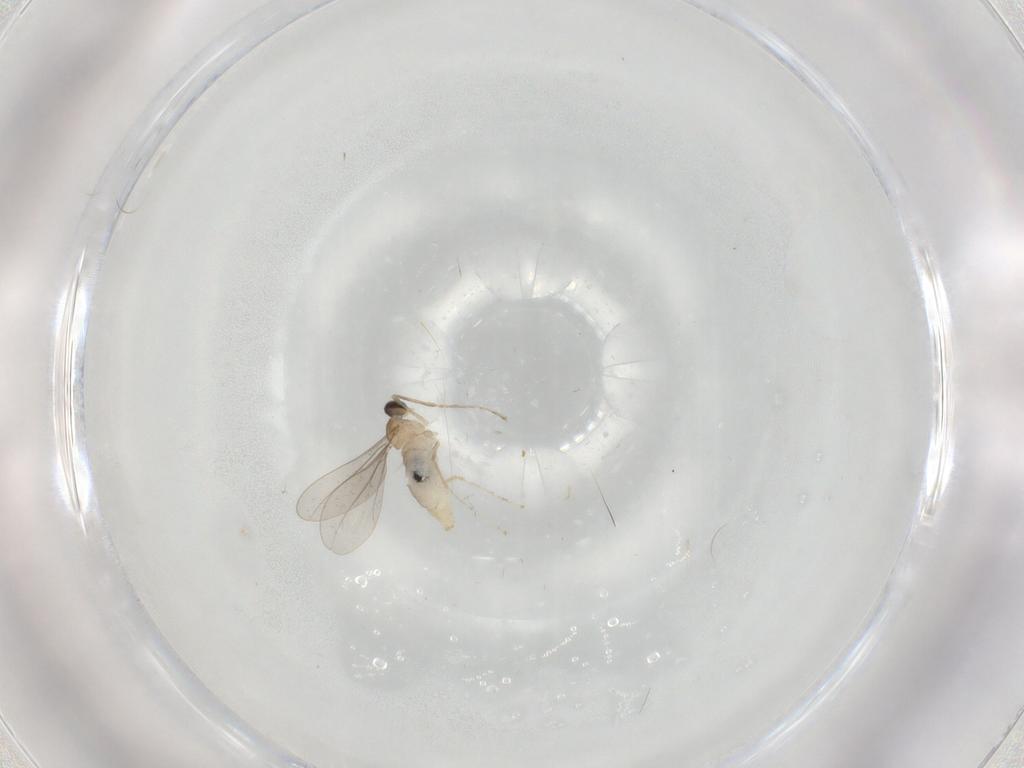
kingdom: Animalia
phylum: Arthropoda
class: Insecta
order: Diptera
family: Cecidomyiidae
